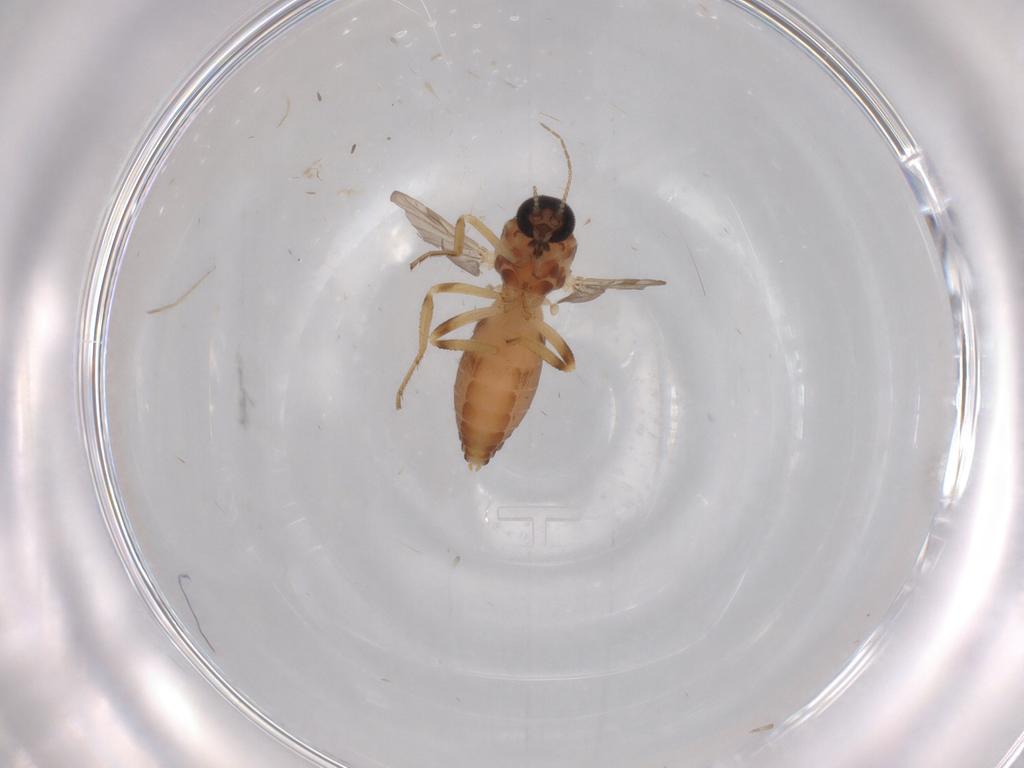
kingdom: Animalia
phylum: Arthropoda
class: Insecta
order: Diptera
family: Ceratopogonidae
